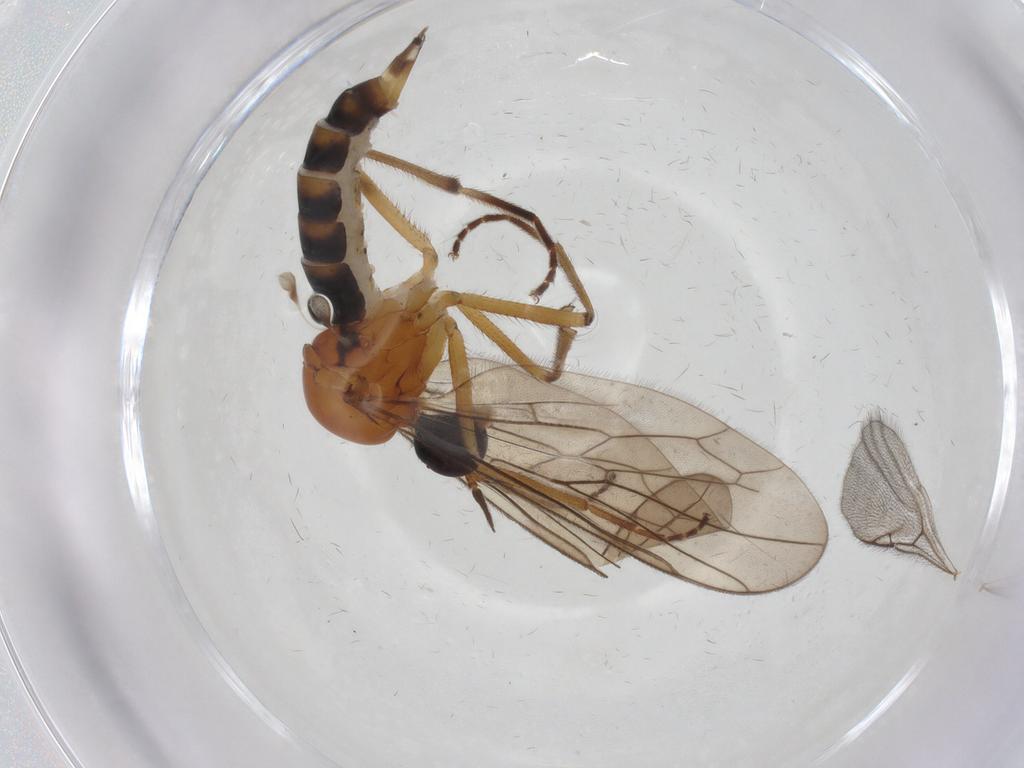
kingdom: Animalia
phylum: Arthropoda
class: Insecta
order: Diptera
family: Hybotidae
